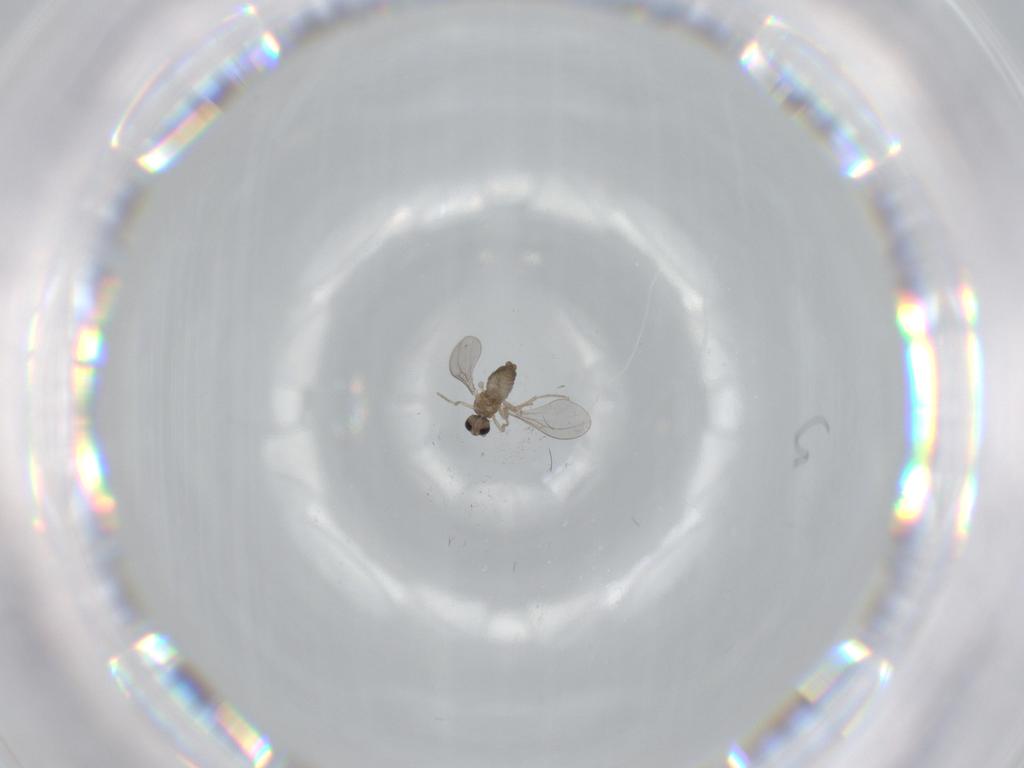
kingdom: Animalia
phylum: Arthropoda
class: Insecta
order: Diptera
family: Cecidomyiidae
